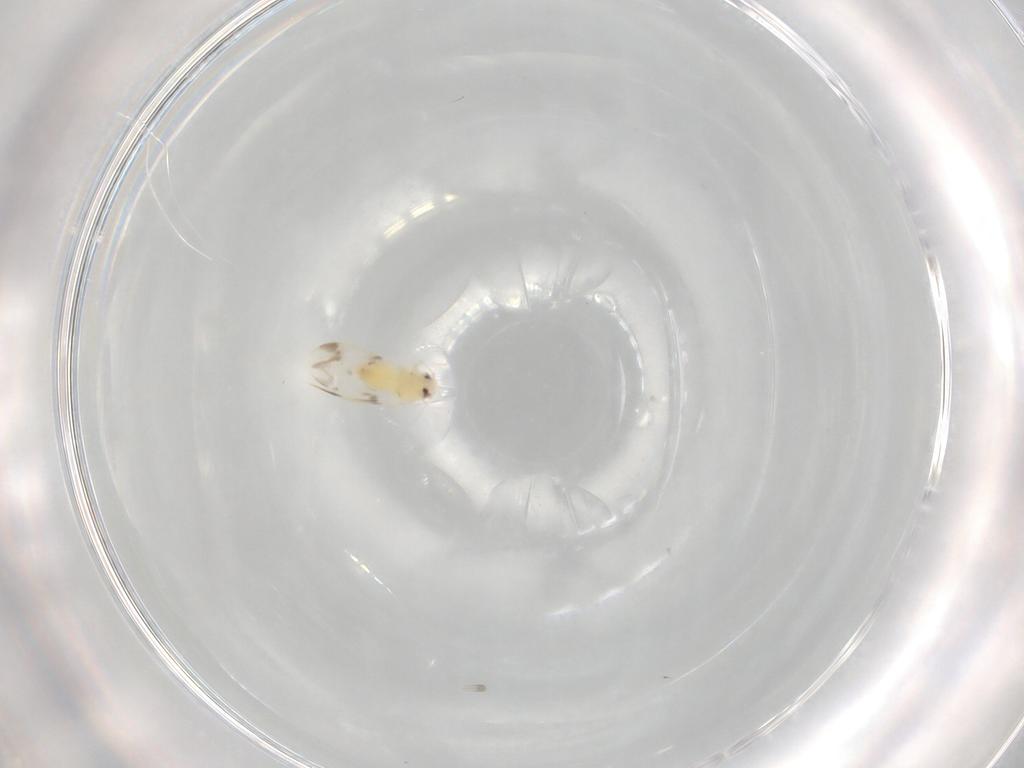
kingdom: Animalia
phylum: Arthropoda
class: Insecta
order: Hemiptera
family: Aleyrodidae
